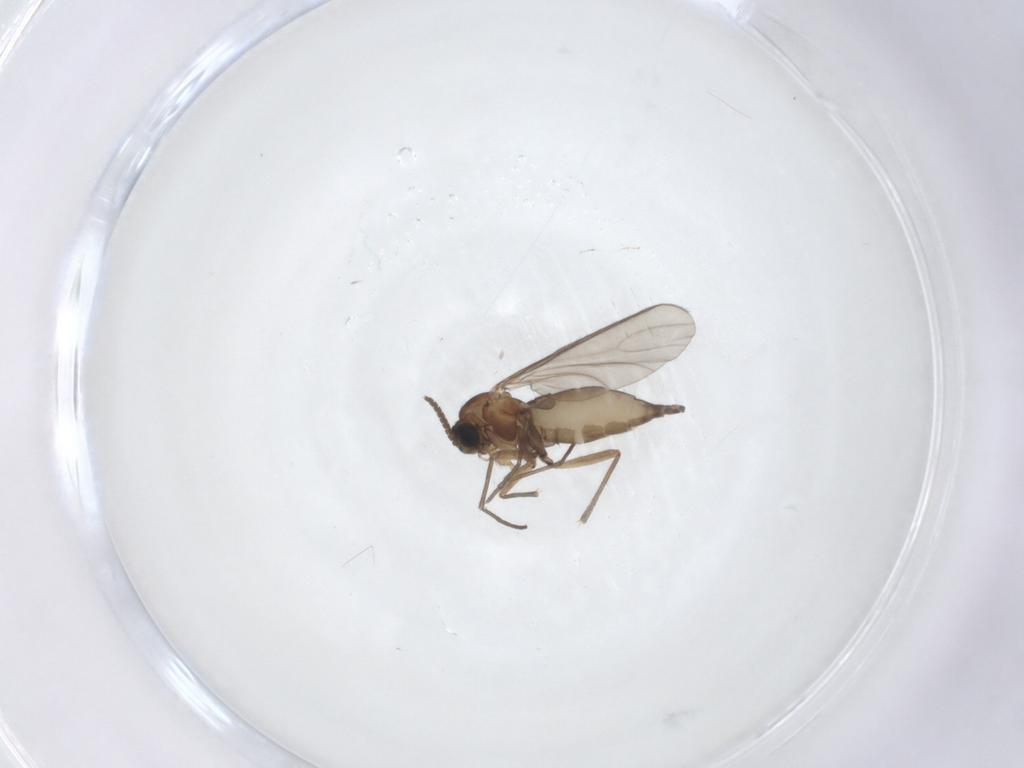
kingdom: Animalia
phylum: Arthropoda
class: Insecta
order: Diptera
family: Sciaridae
